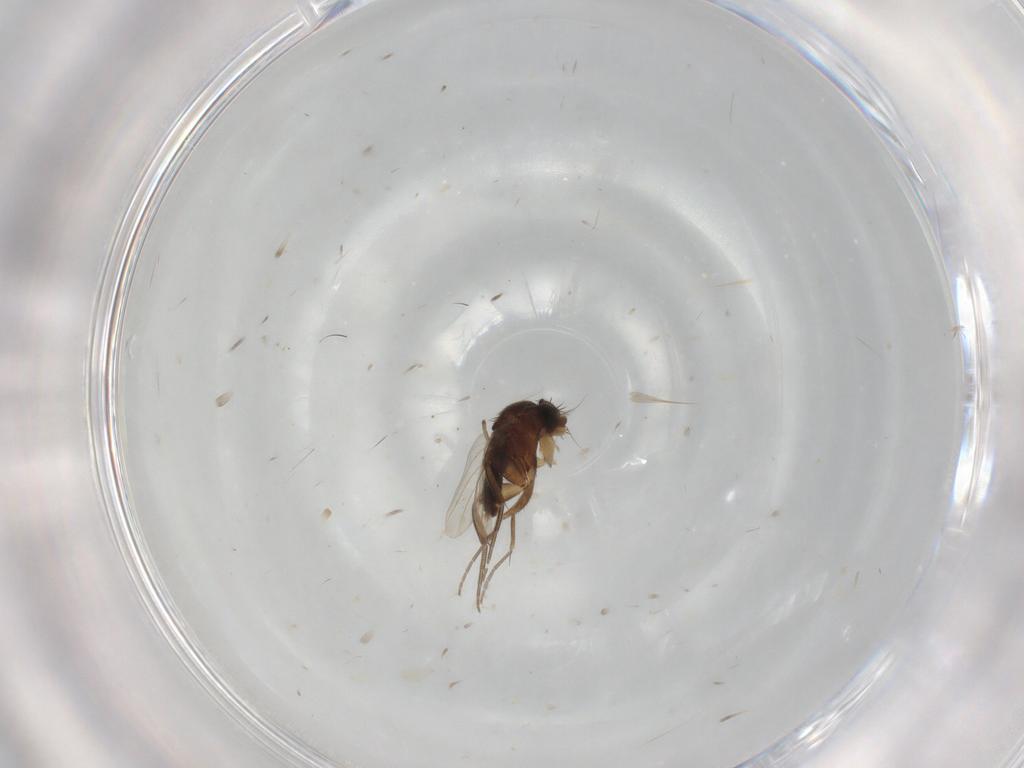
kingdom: Animalia
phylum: Arthropoda
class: Insecta
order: Diptera
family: Phoridae
